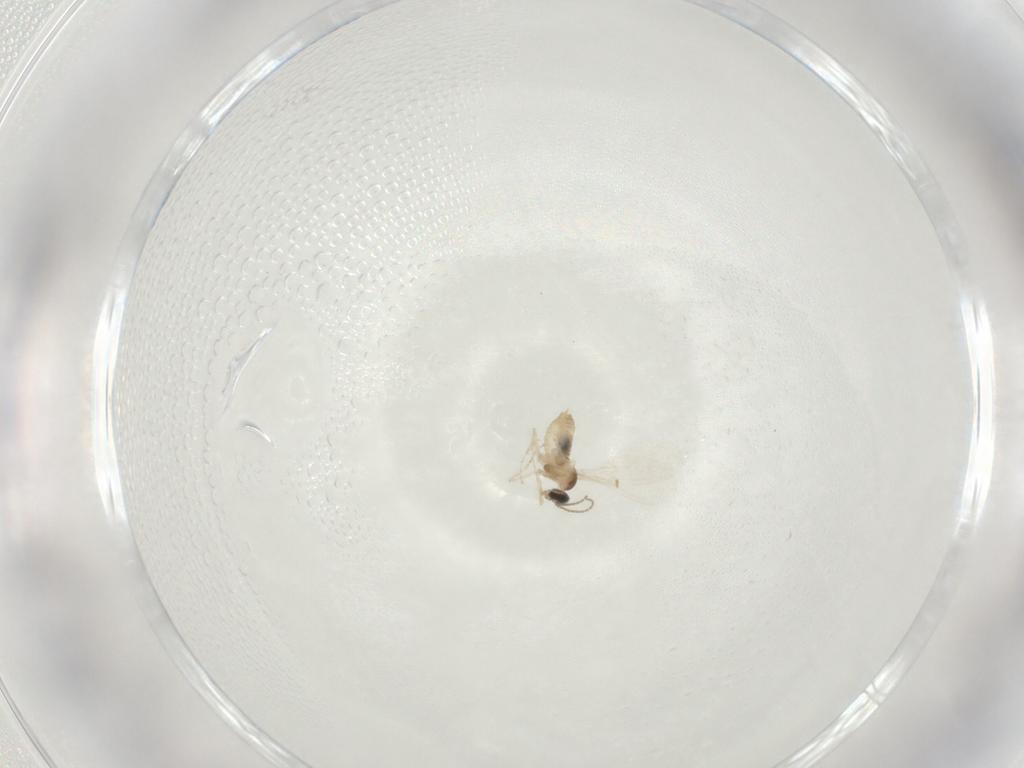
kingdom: Animalia
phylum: Arthropoda
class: Insecta
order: Diptera
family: Cecidomyiidae
